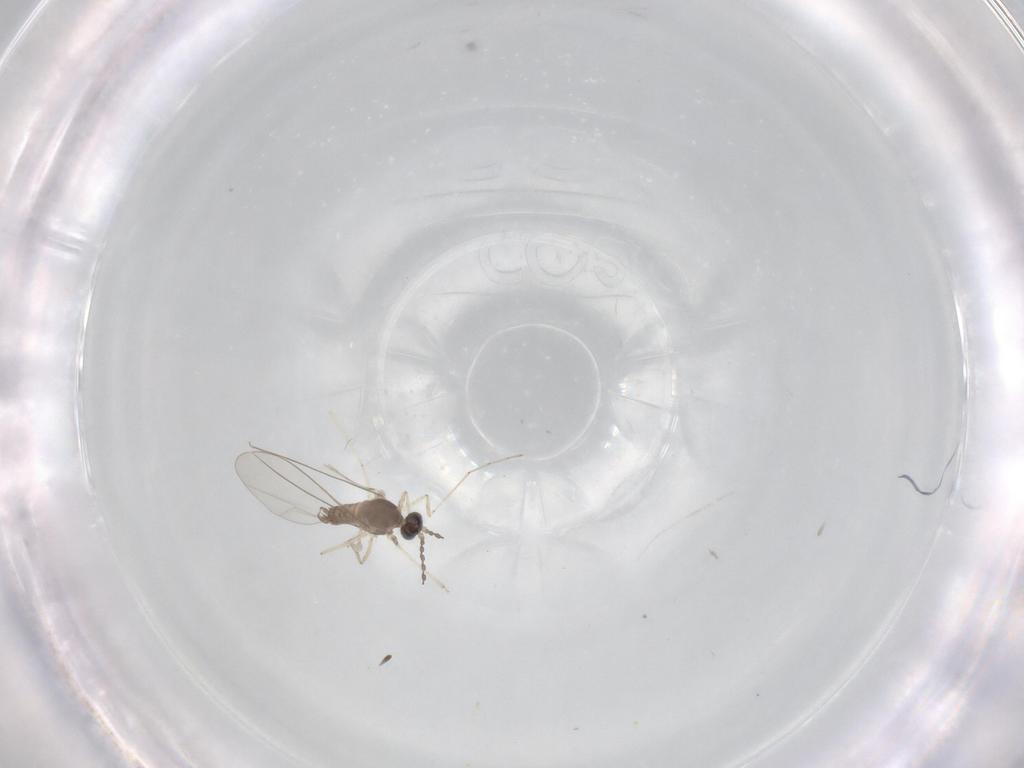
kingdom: Animalia
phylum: Arthropoda
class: Insecta
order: Diptera
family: Cecidomyiidae
